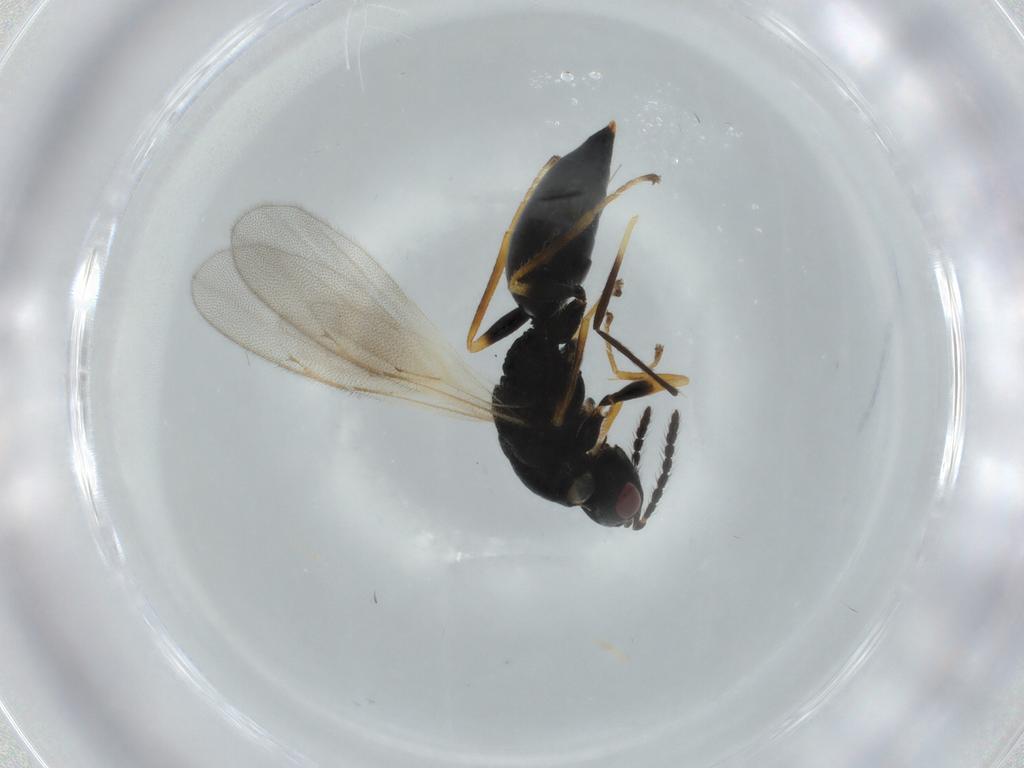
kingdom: Animalia
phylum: Arthropoda
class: Insecta
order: Hymenoptera
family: Eurytomidae
